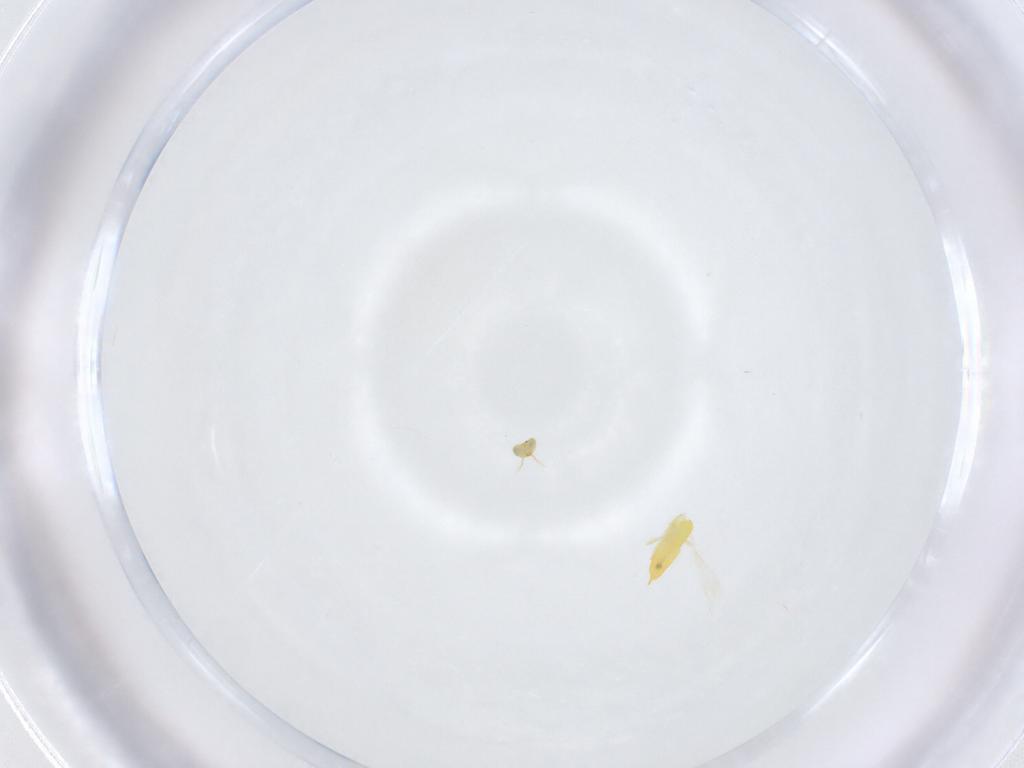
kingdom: Animalia
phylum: Arthropoda
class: Insecta
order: Hymenoptera
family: Aphelinidae
